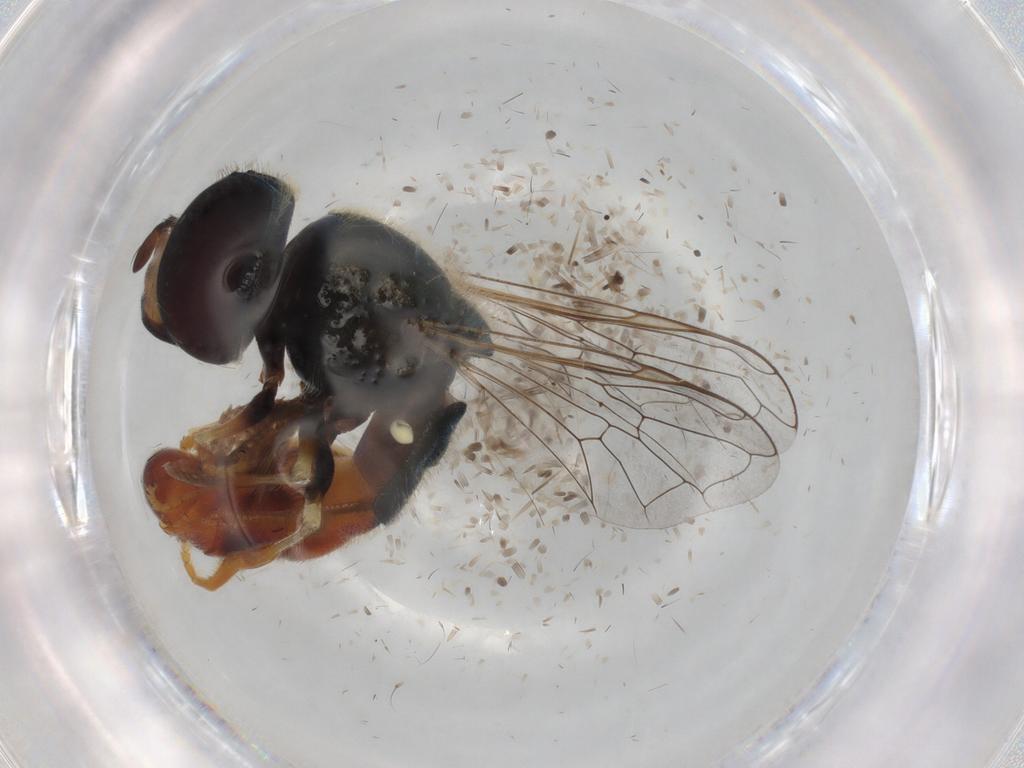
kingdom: Animalia
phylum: Arthropoda
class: Insecta
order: Diptera
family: Syrphidae
